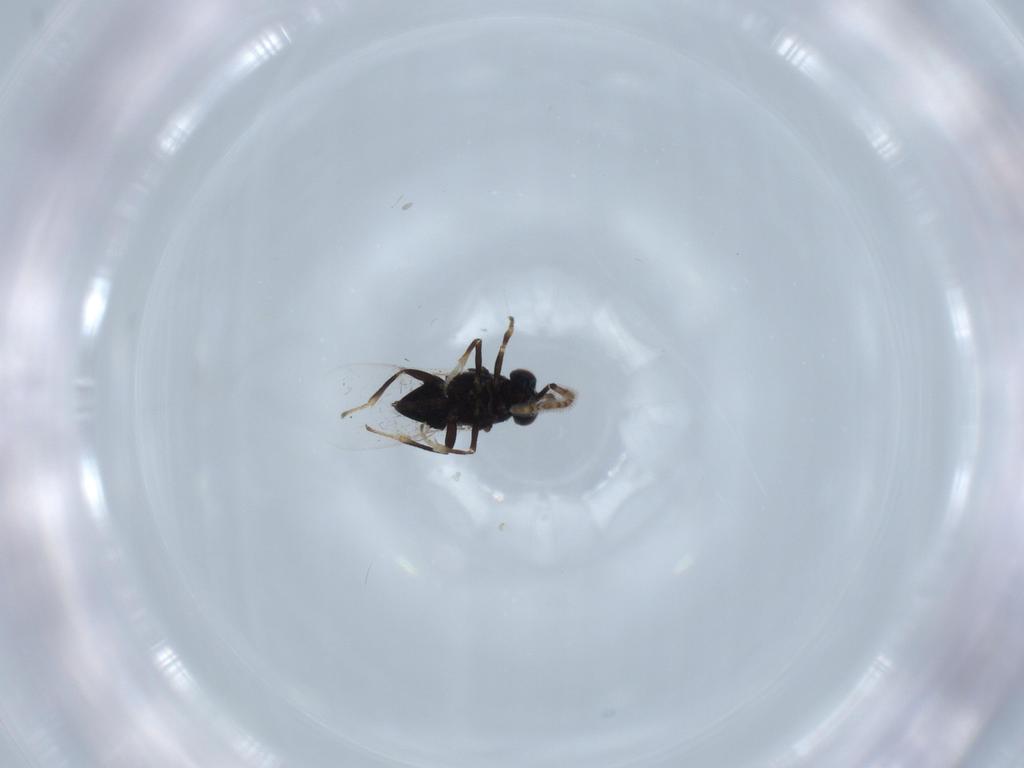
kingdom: Animalia
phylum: Arthropoda
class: Insecta
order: Hymenoptera
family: Encyrtidae
